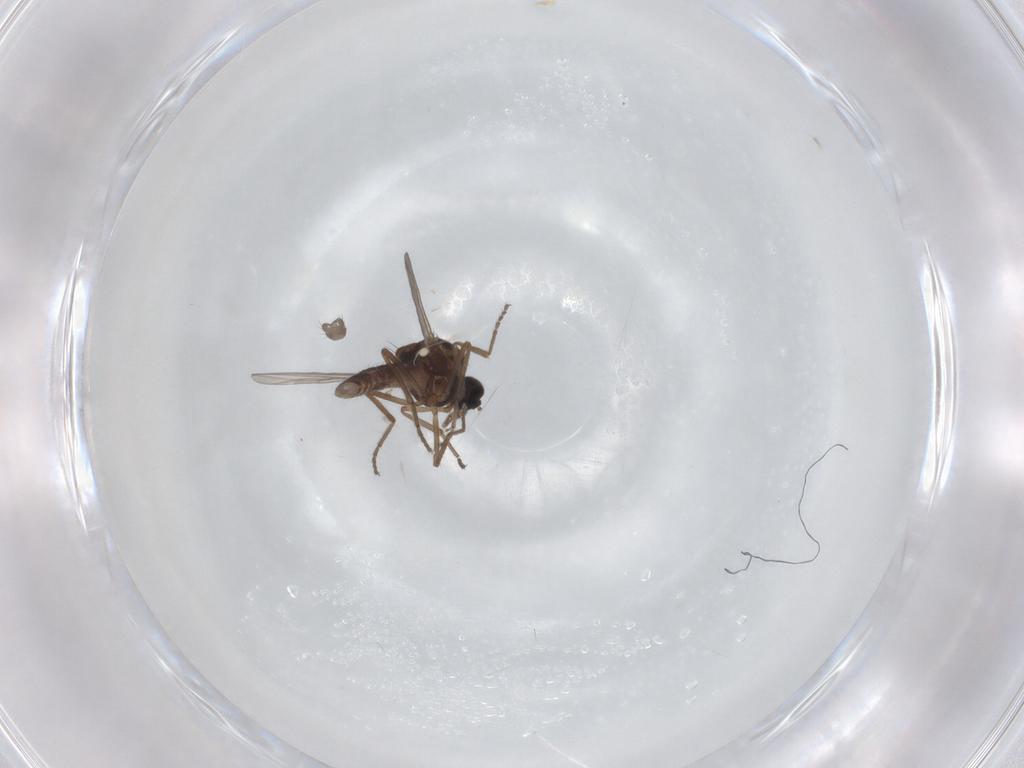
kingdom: Animalia
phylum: Arthropoda
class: Insecta
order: Diptera
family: Ceratopogonidae
